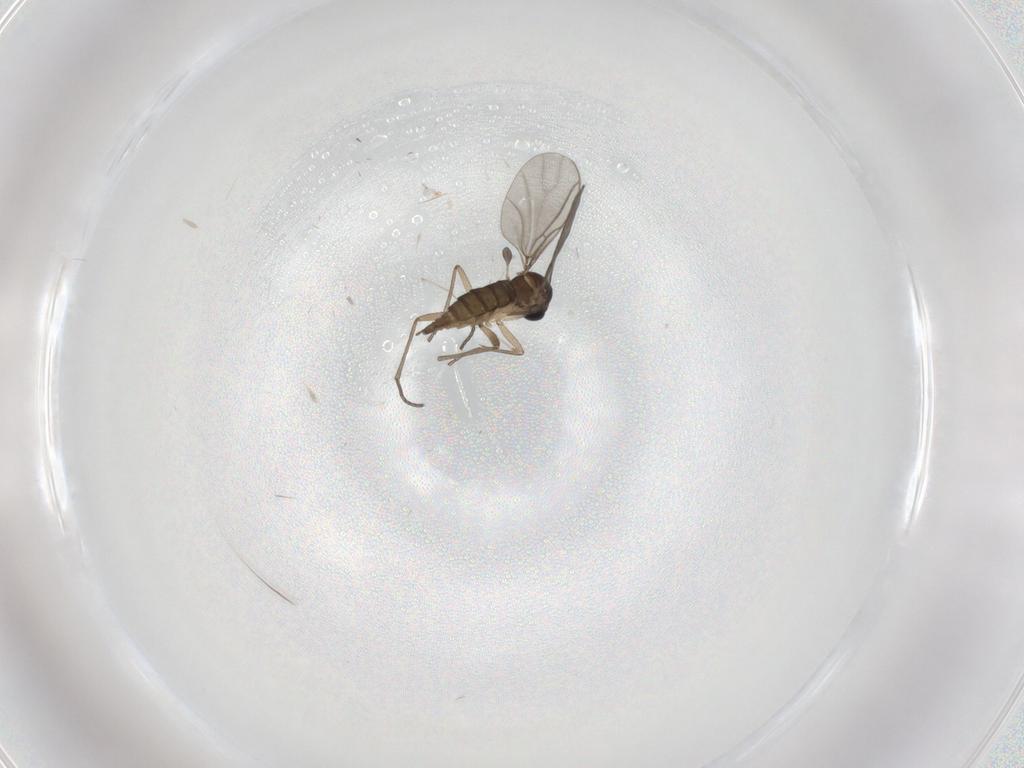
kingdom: Animalia
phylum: Arthropoda
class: Insecta
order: Diptera
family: Sciaridae
